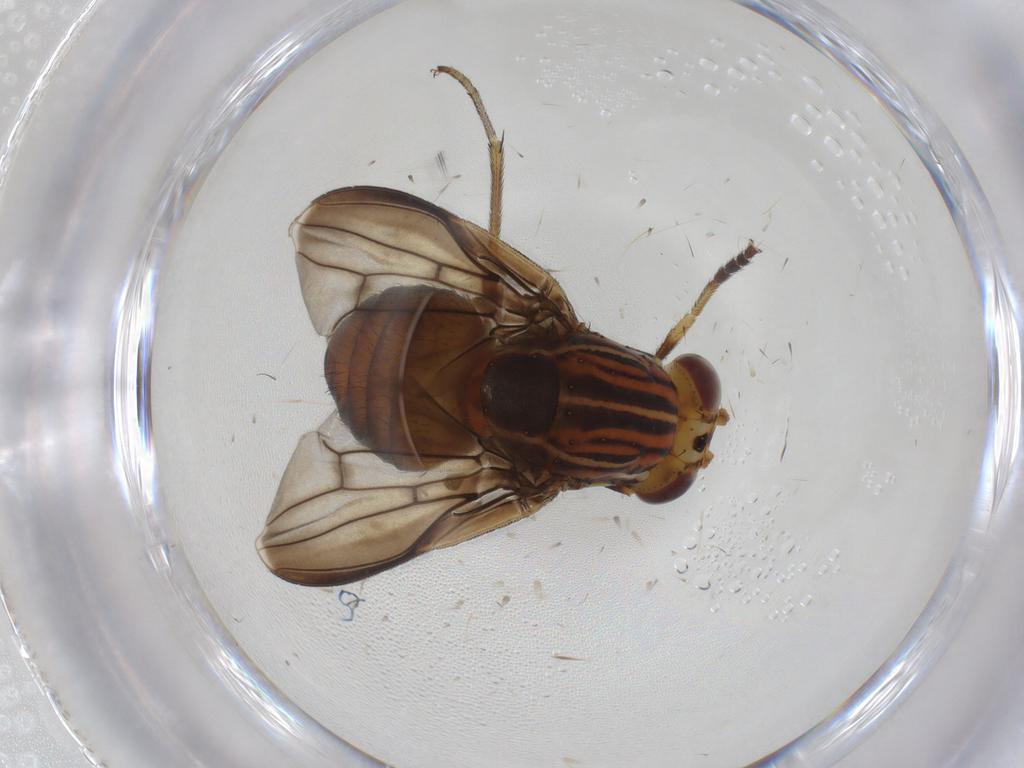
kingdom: Animalia
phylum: Arthropoda
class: Insecta
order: Diptera
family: Lauxaniidae
